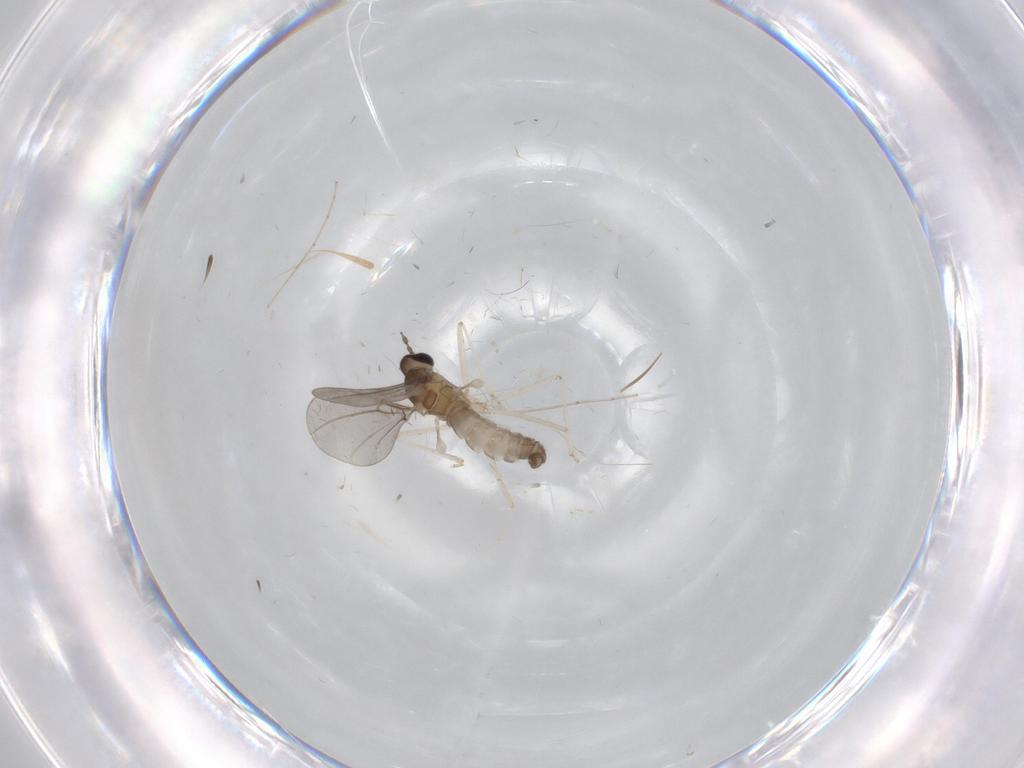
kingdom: Animalia
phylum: Arthropoda
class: Insecta
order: Diptera
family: Cecidomyiidae
